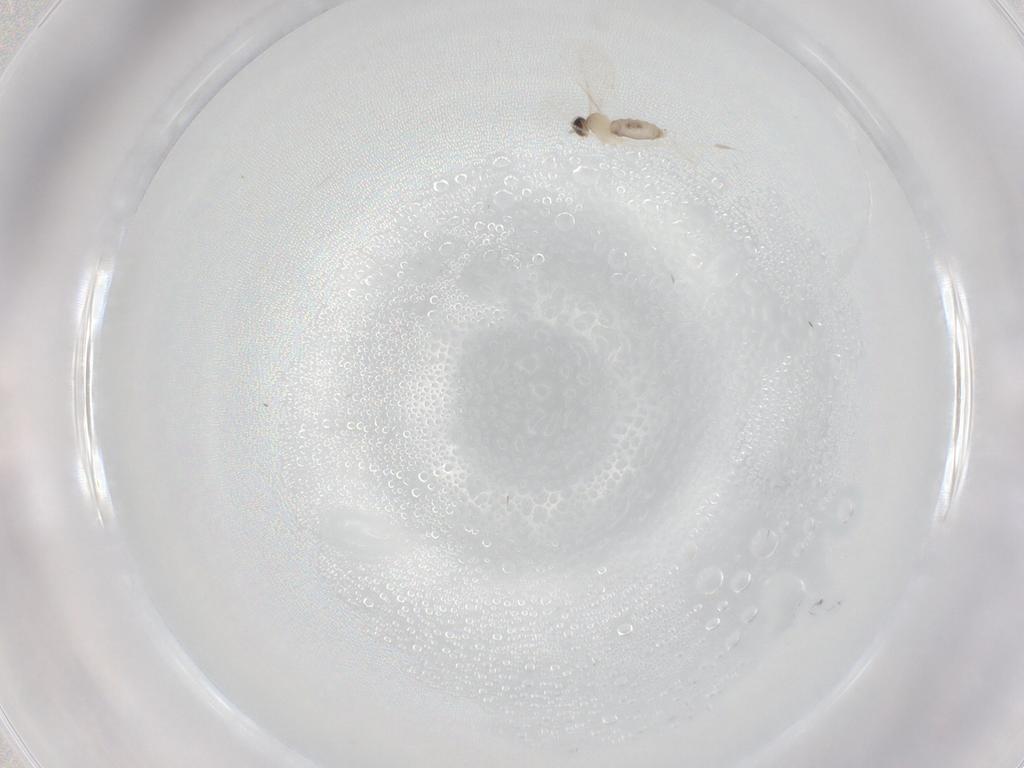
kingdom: Animalia
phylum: Arthropoda
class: Insecta
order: Diptera
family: Cecidomyiidae
